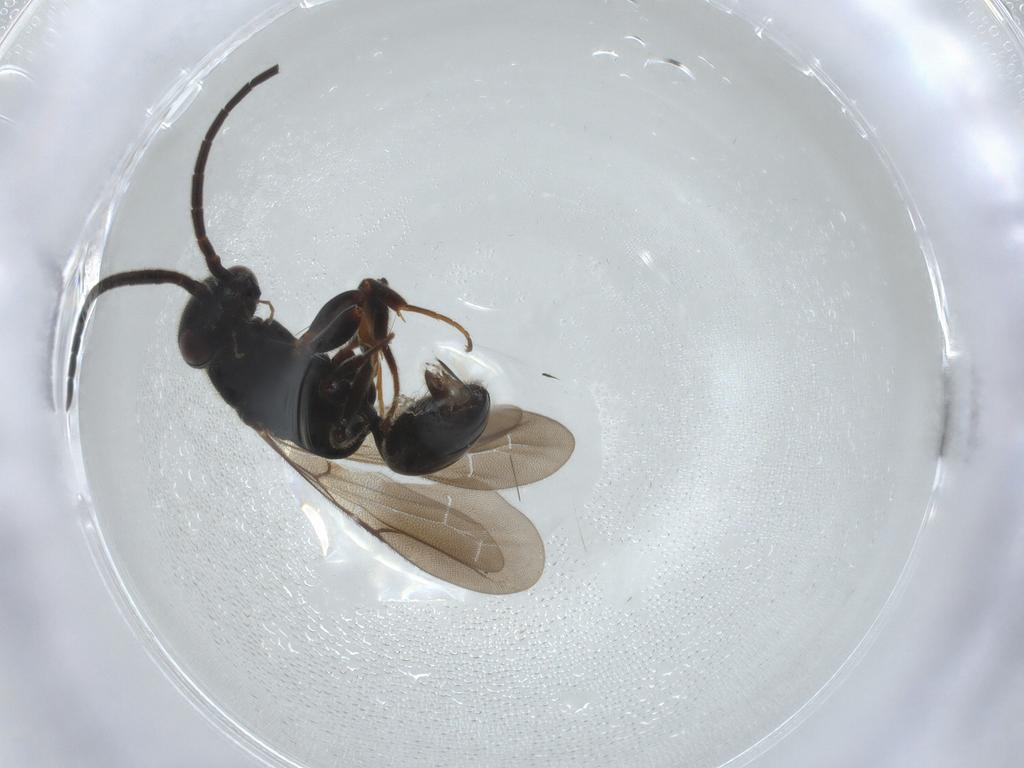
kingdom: Animalia
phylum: Arthropoda
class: Insecta
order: Hymenoptera
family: Bethylidae
